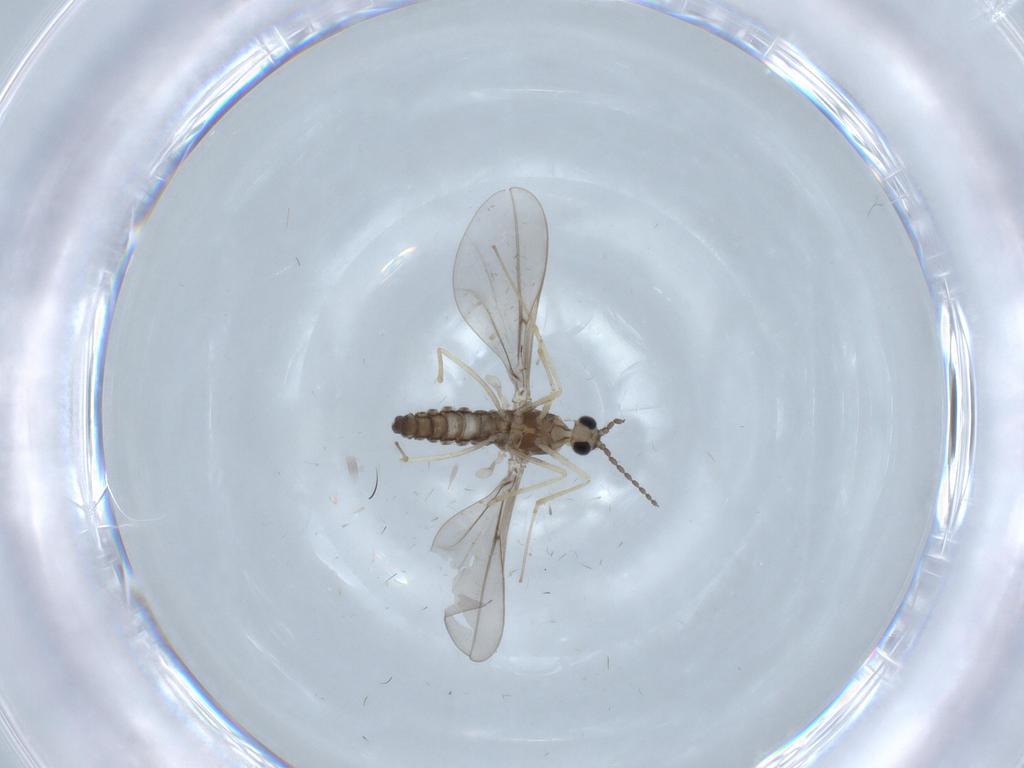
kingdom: Animalia
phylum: Arthropoda
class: Insecta
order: Diptera
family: Cecidomyiidae
